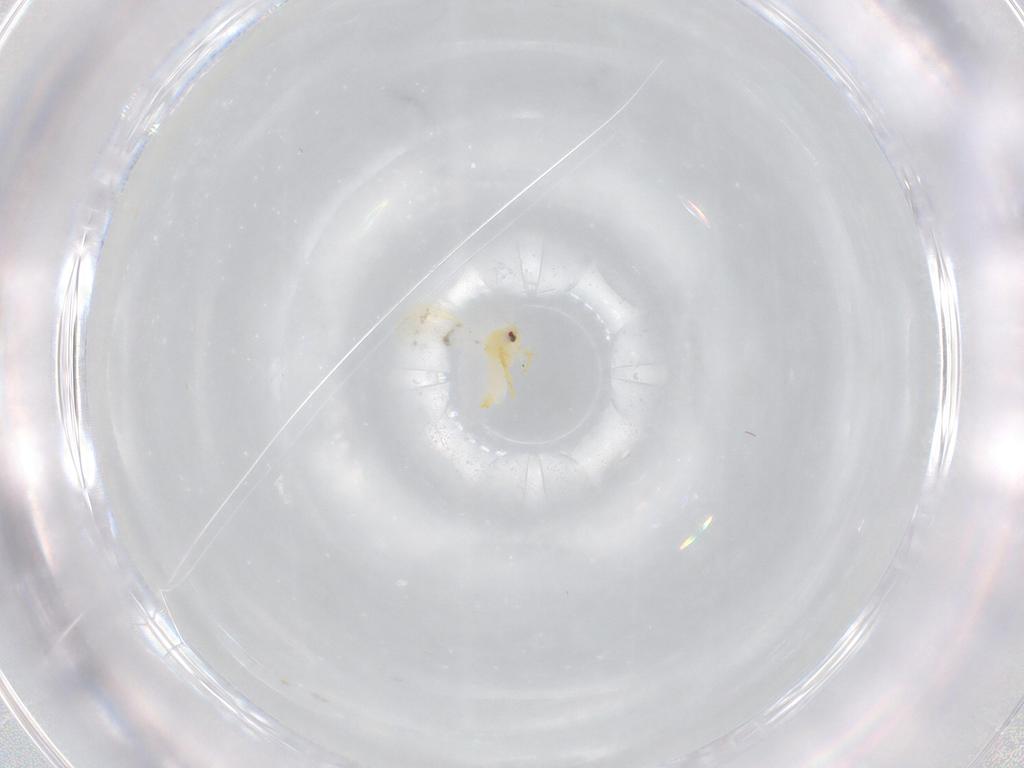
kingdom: Animalia
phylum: Arthropoda
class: Insecta
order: Hemiptera
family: Aleyrodidae
